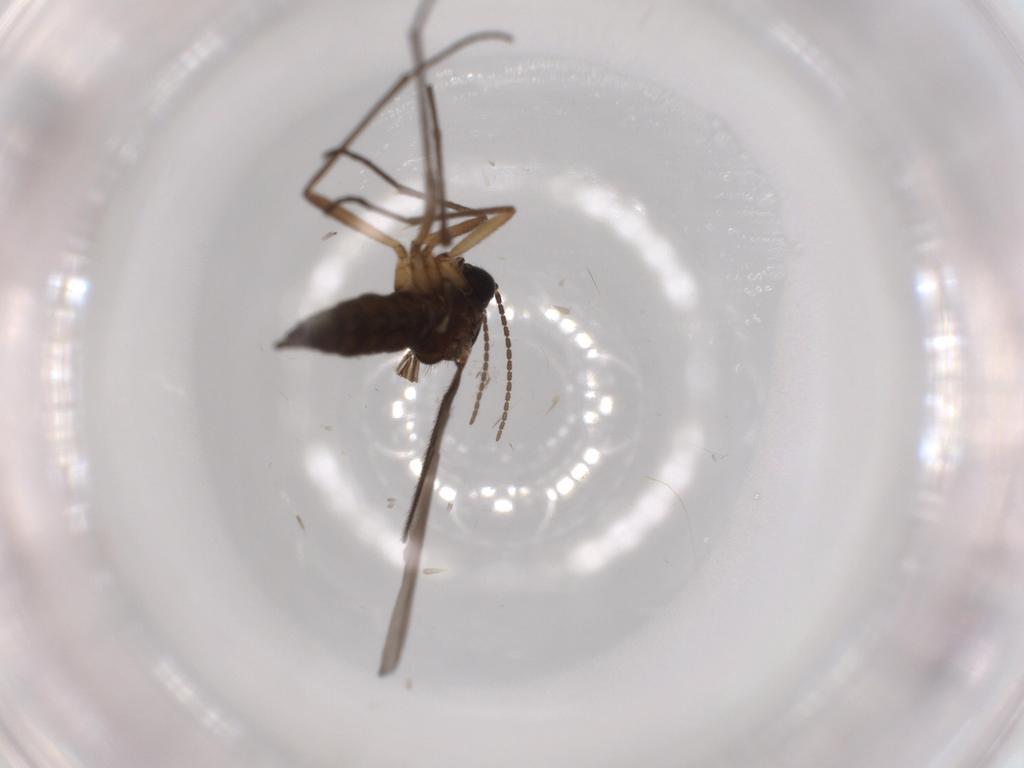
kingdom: Animalia
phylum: Arthropoda
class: Insecta
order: Diptera
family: Sciaridae
